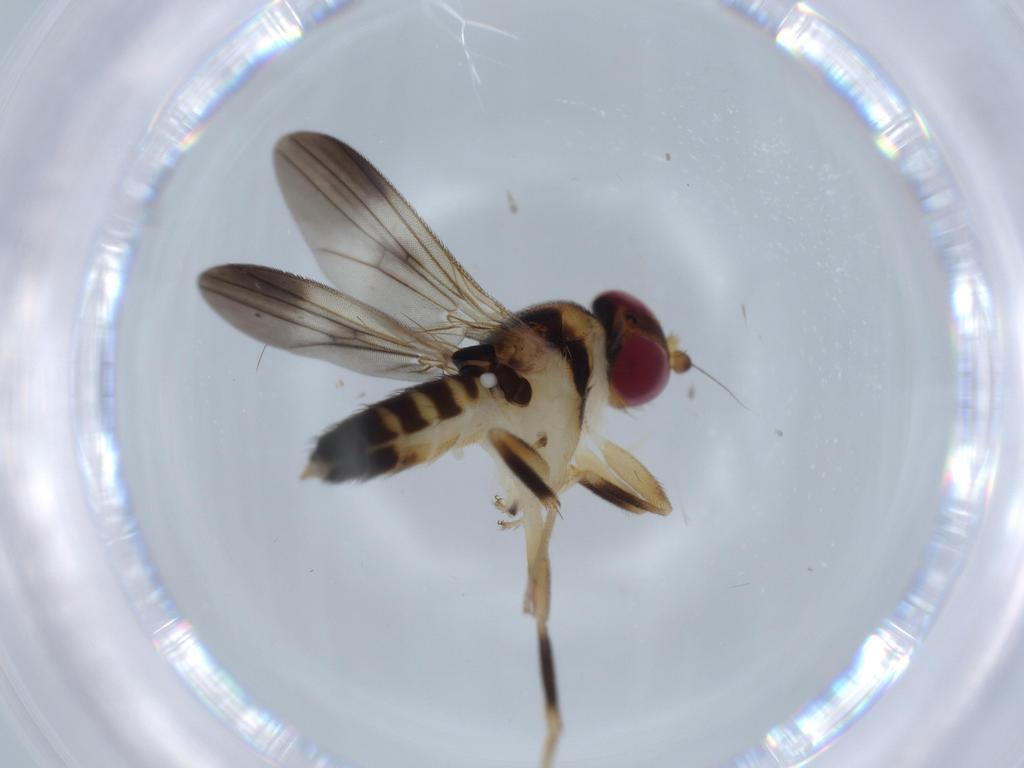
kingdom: Animalia
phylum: Arthropoda
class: Insecta
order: Diptera
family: Clusiidae
